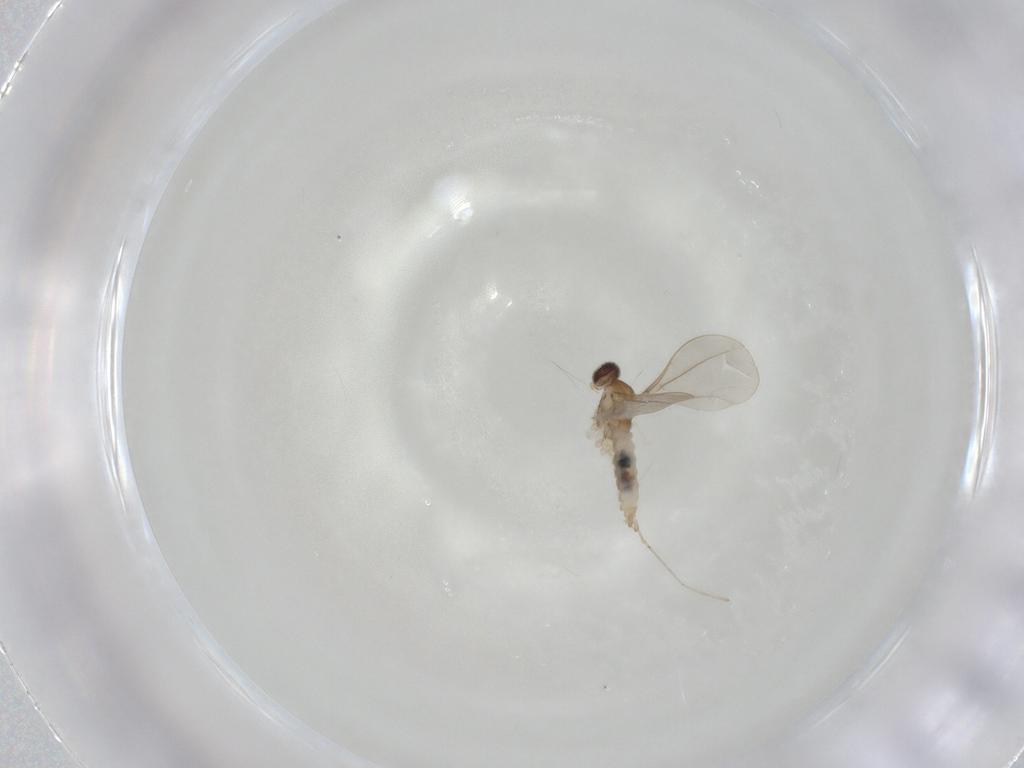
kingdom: Animalia
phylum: Arthropoda
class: Insecta
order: Diptera
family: Cecidomyiidae
